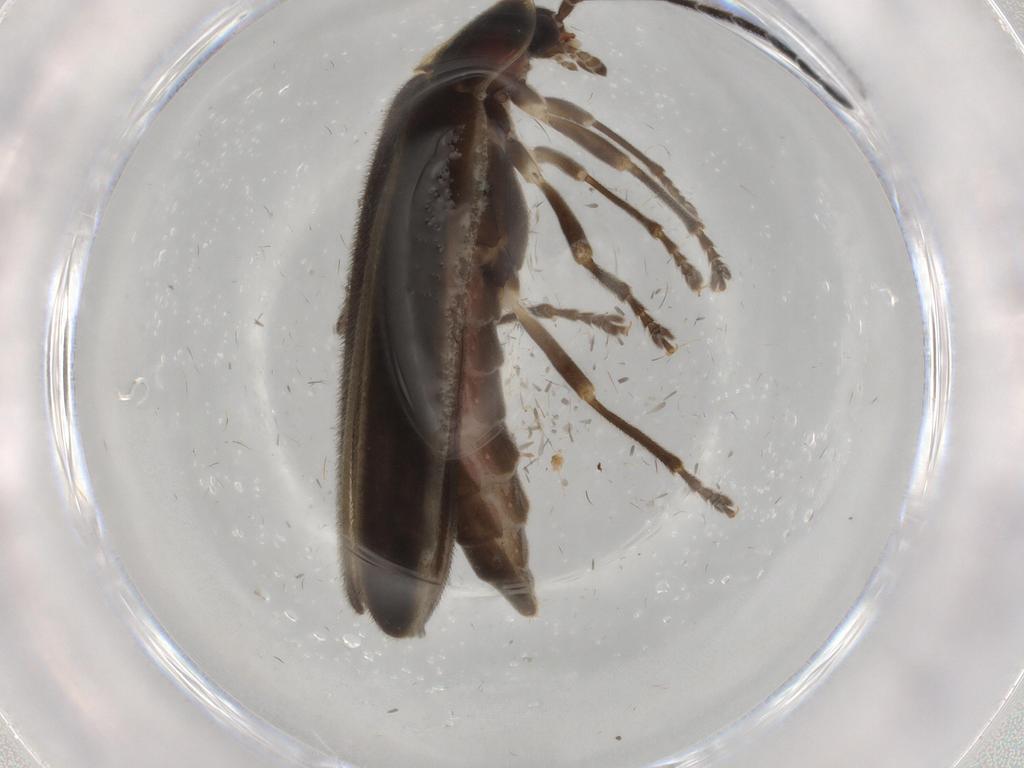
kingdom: Animalia
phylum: Arthropoda
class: Insecta
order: Coleoptera
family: Lampyridae
